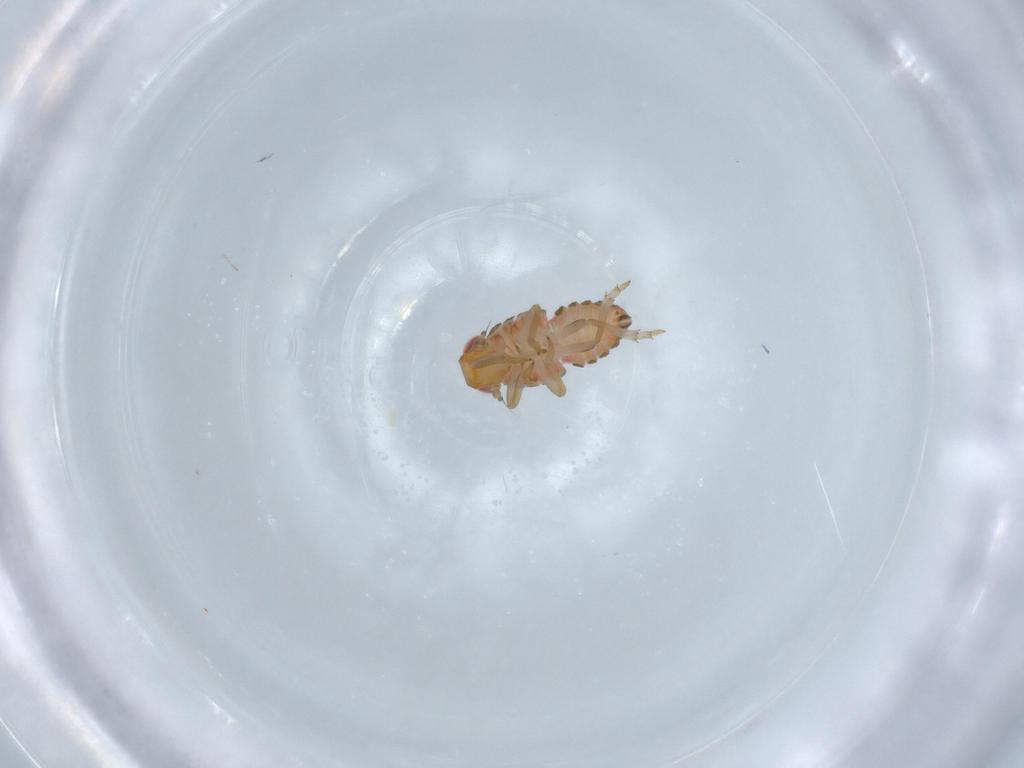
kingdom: Animalia
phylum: Arthropoda
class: Insecta
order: Hemiptera
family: Issidae
